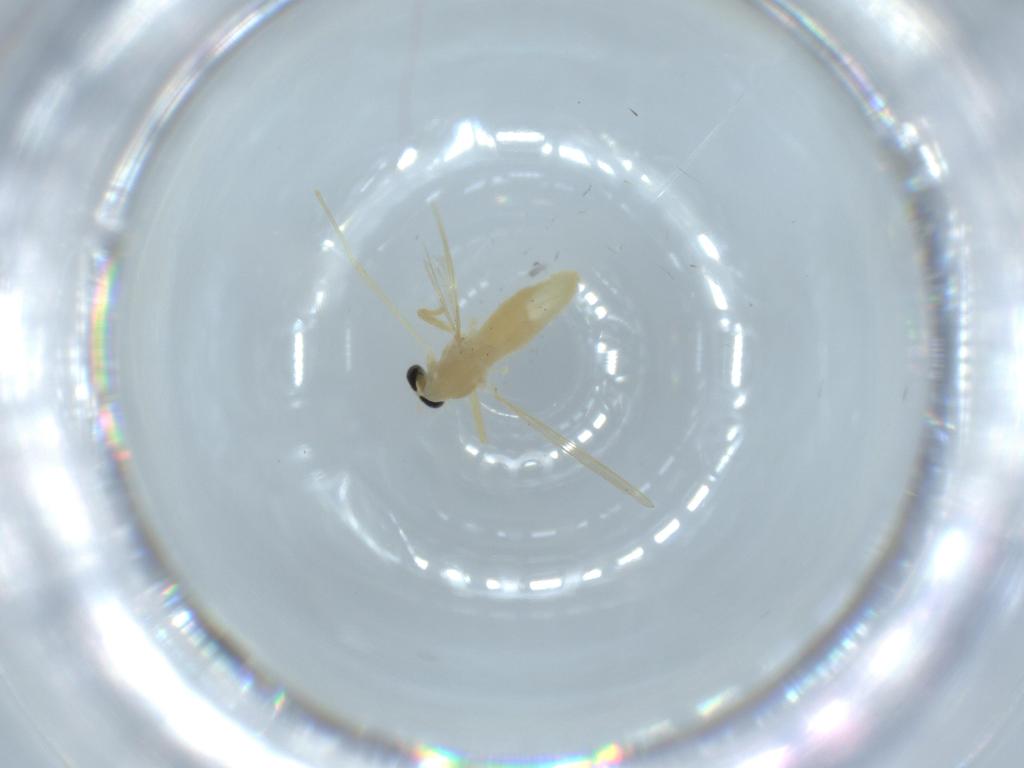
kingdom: Animalia
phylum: Arthropoda
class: Insecta
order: Diptera
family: Chironomidae
